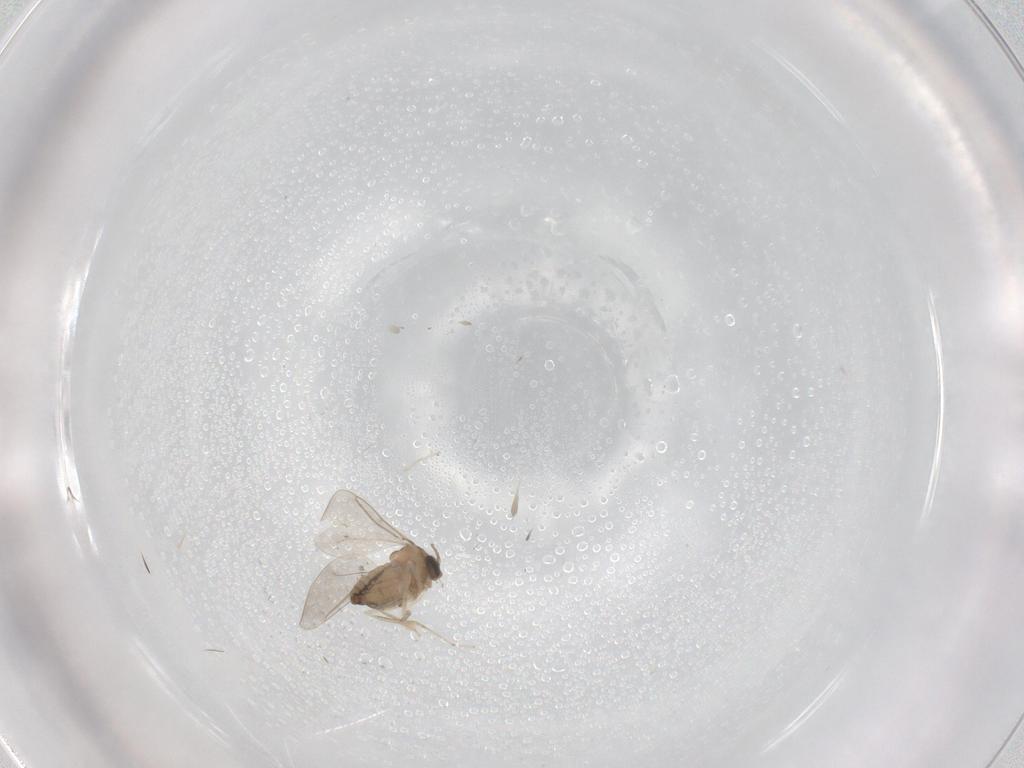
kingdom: Animalia
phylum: Arthropoda
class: Insecta
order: Diptera
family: Cecidomyiidae
